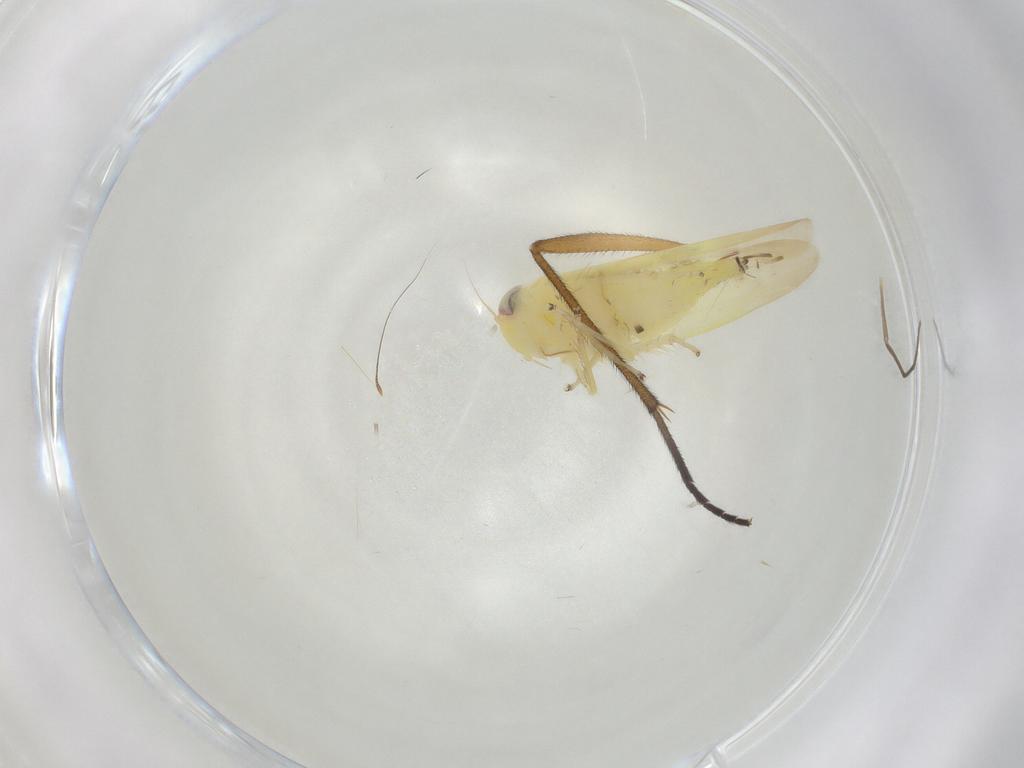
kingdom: Animalia
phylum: Arthropoda
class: Insecta
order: Hemiptera
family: Cicadellidae
